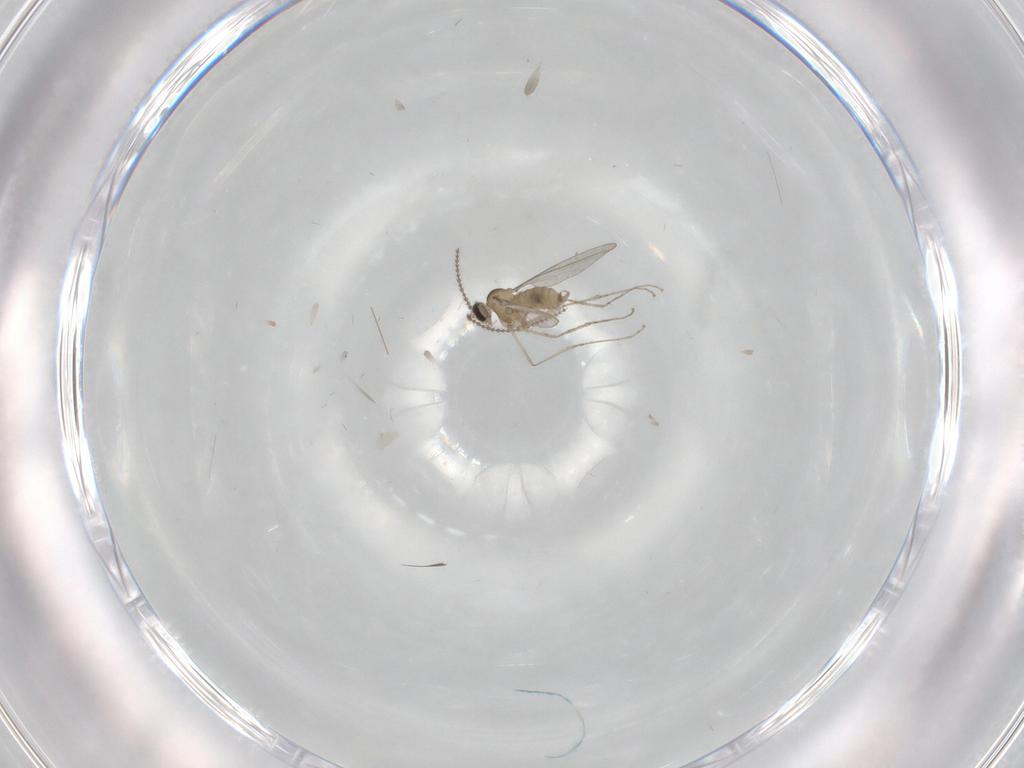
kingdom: Animalia
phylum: Arthropoda
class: Insecta
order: Diptera
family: Cecidomyiidae
